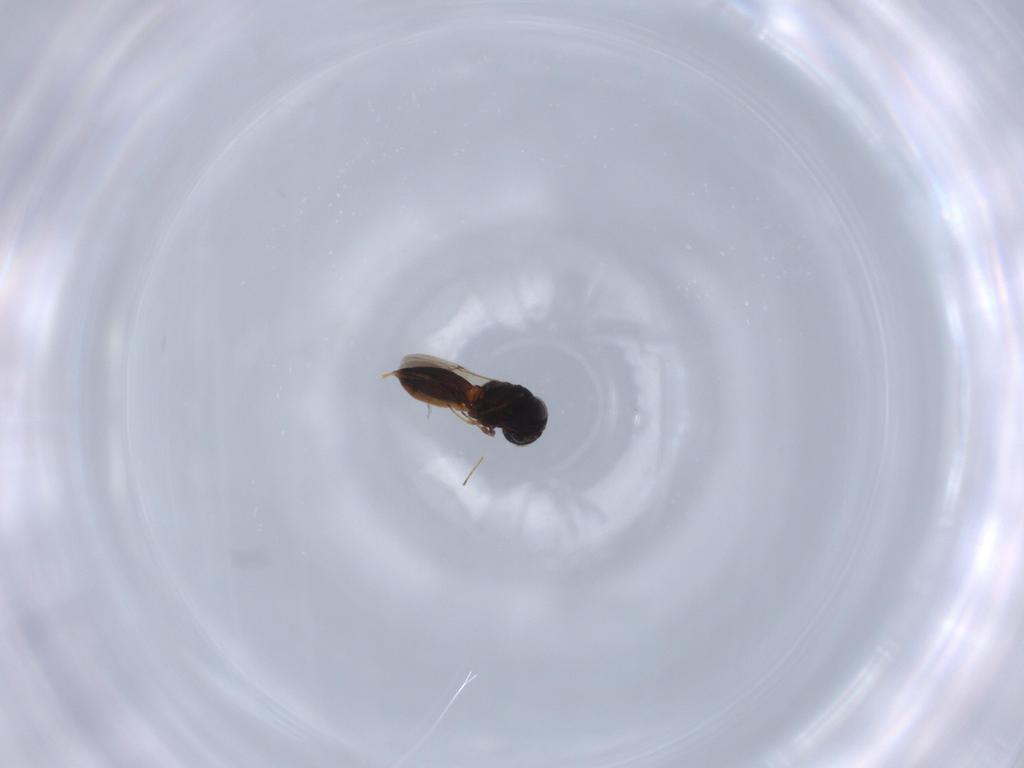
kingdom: Animalia
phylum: Arthropoda
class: Insecta
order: Hymenoptera
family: Scelionidae
